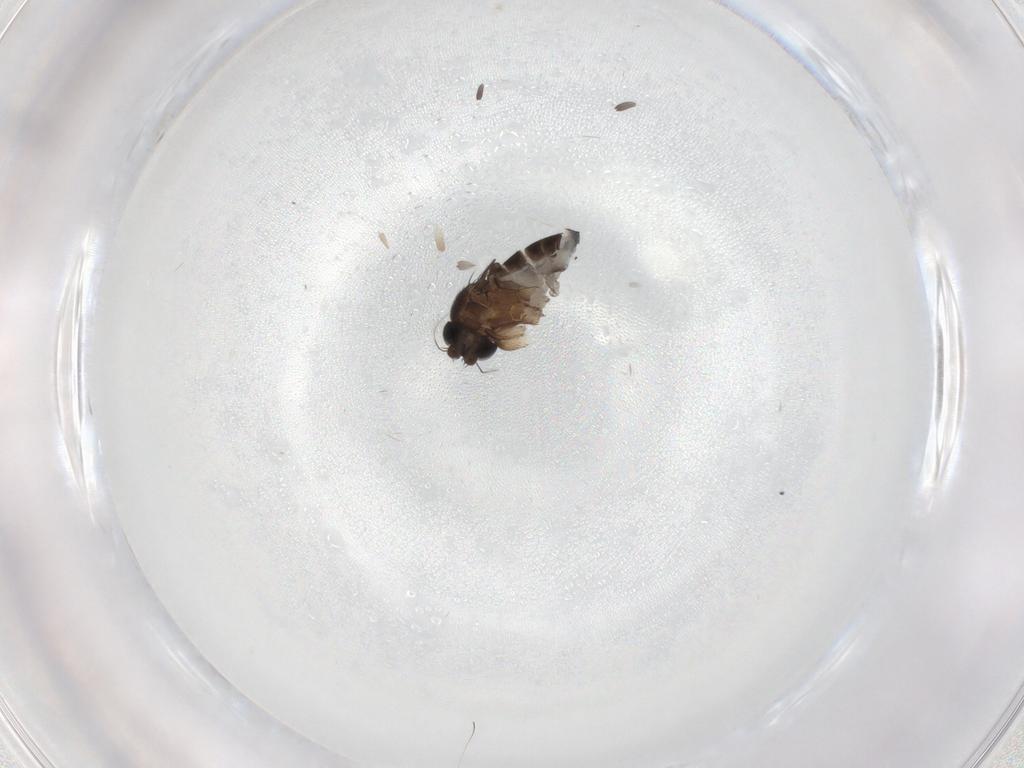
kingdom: Animalia
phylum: Arthropoda
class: Insecta
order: Diptera
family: Phoridae
